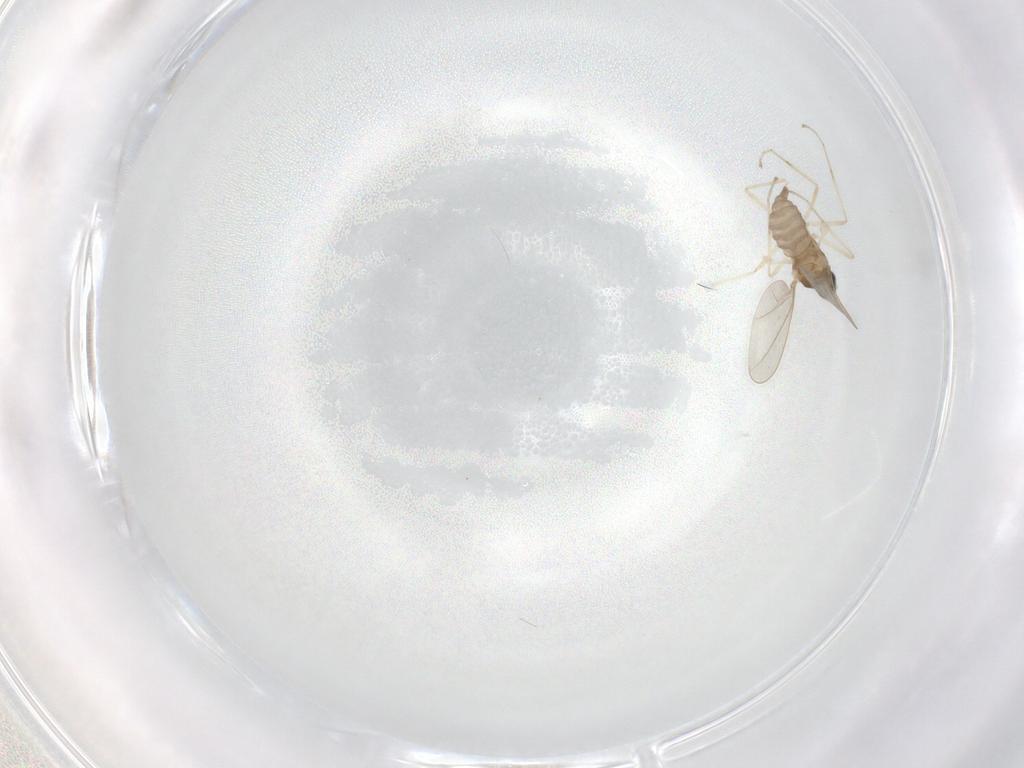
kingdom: Animalia
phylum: Arthropoda
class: Insecta
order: Diptera
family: Cecidomyiidae
